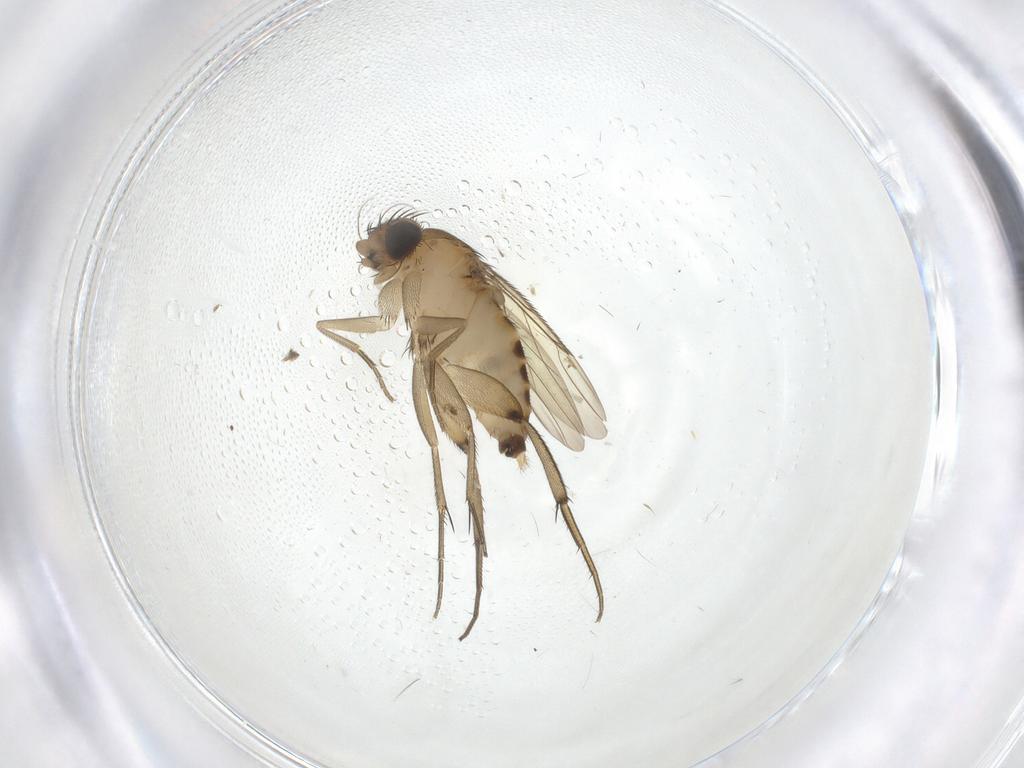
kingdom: Animalia
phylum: Arthropoda
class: Insecta
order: Diptera
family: Phoridae
